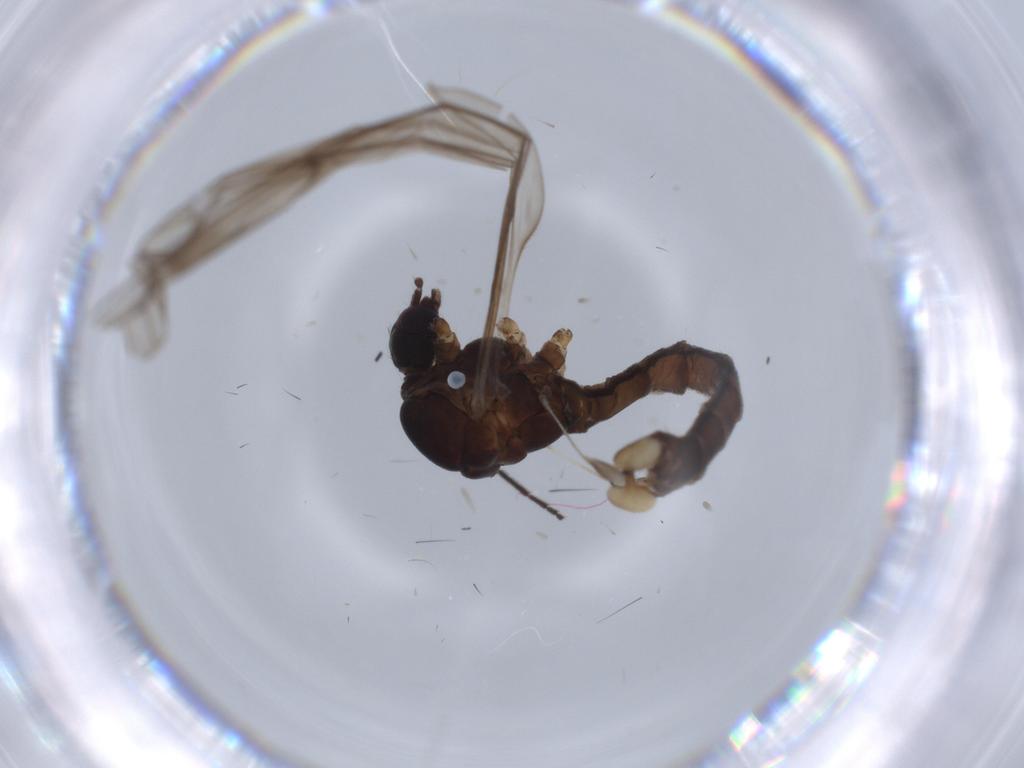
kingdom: Animalia
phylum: Arthropoda
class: Insecta
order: Diptera
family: Limoniidae
